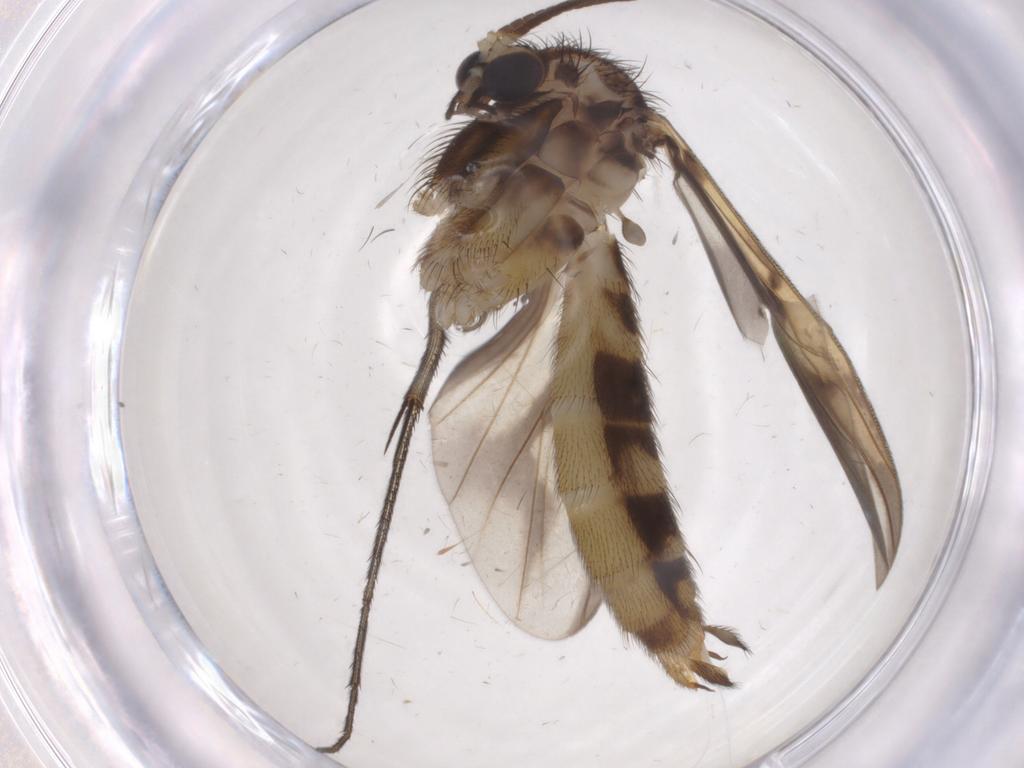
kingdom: Animalia
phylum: Arthropoda
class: Insecta
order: Diptera
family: Mycetophilidae
